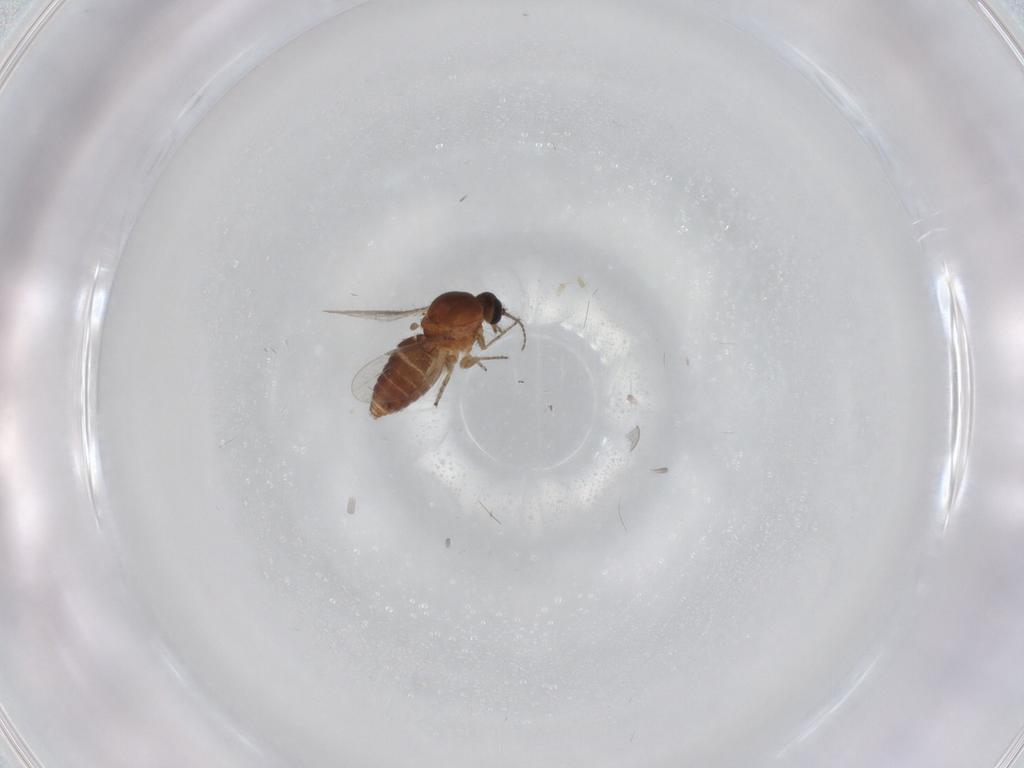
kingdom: Animalia
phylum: Arthropoda
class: Insecta
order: Diptera
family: Ceratopogonidae
